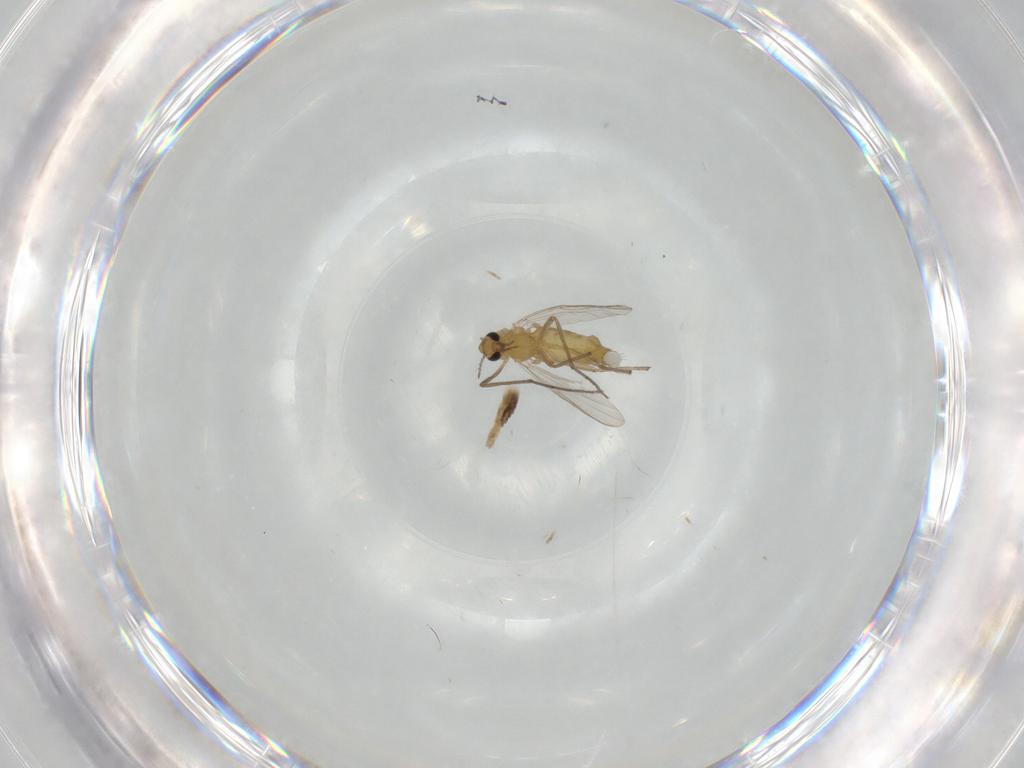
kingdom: Animalia
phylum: Arthropoda
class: Insecta
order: Diptera
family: Chironomidae
